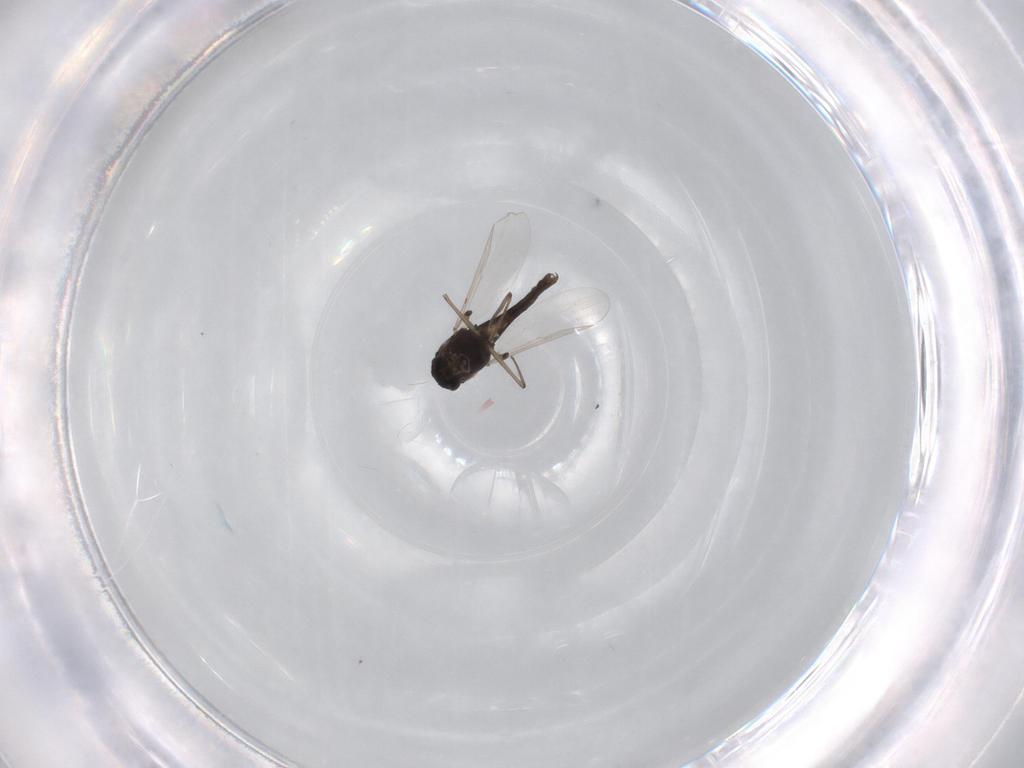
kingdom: Animalia
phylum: Arthropoda
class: Insecta
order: Diptera
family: Chironomidae
